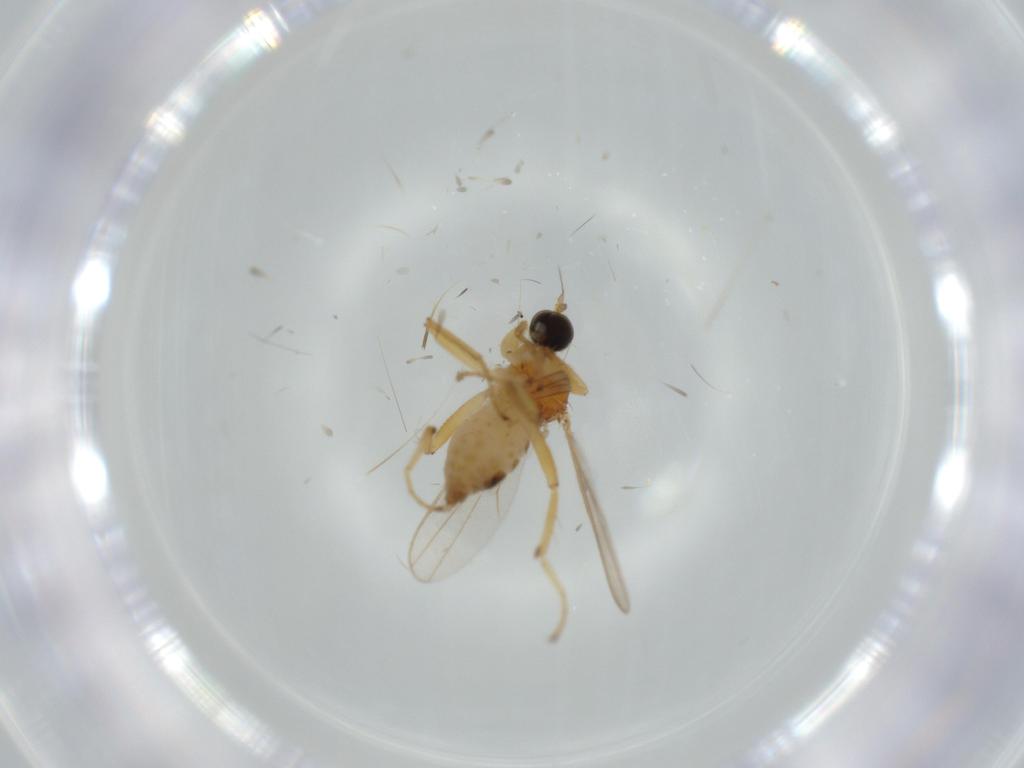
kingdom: Animalia
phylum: Arthropoda
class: Insecta
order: Diptera
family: Hybotidae
